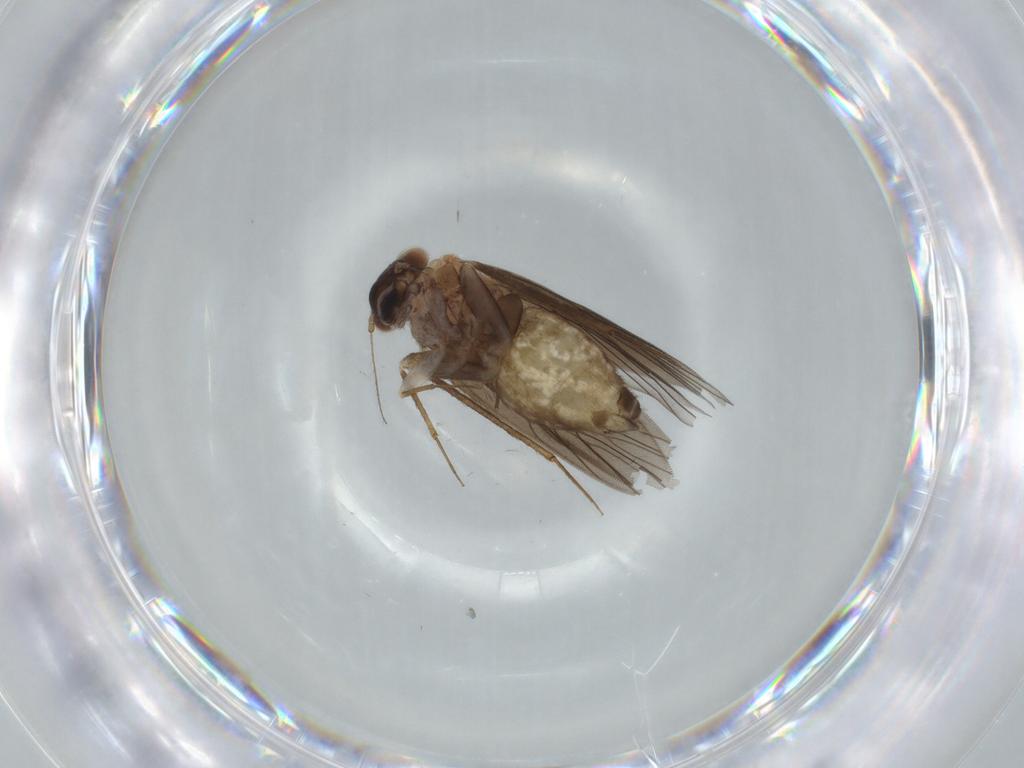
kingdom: Animalia
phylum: Arthropoda
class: Insecta
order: Psocodea
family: Lepidopsocidae
